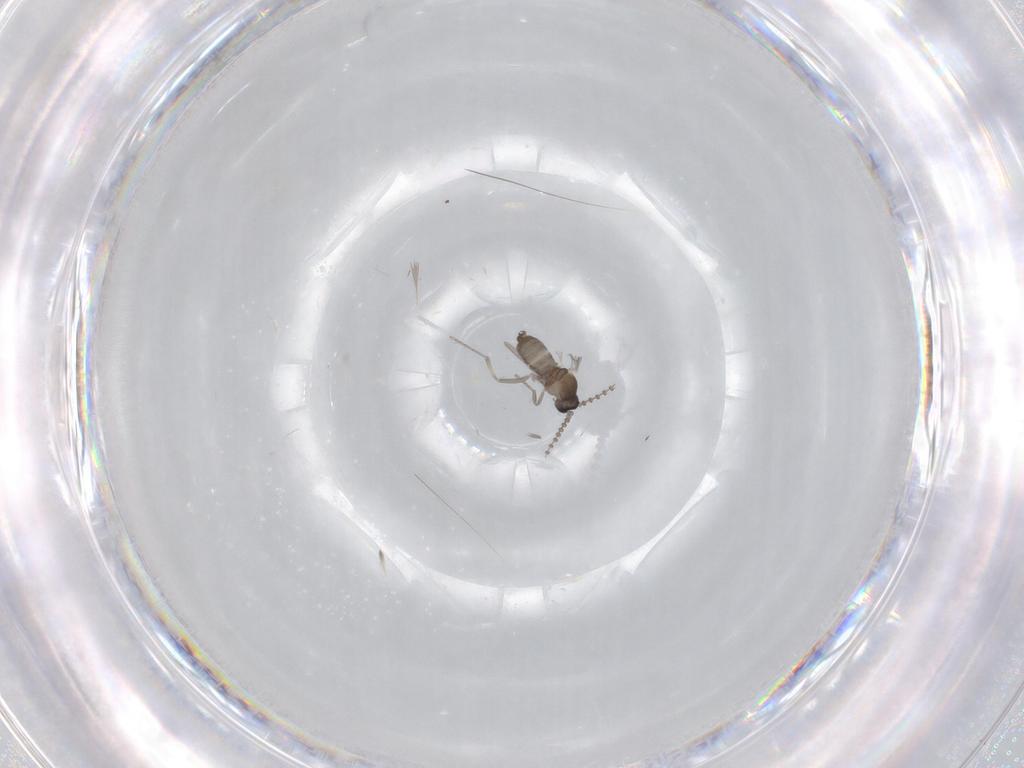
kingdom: Animalia
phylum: Arthropoda
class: Insecta
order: Diptera
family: Cecidomyiidae
